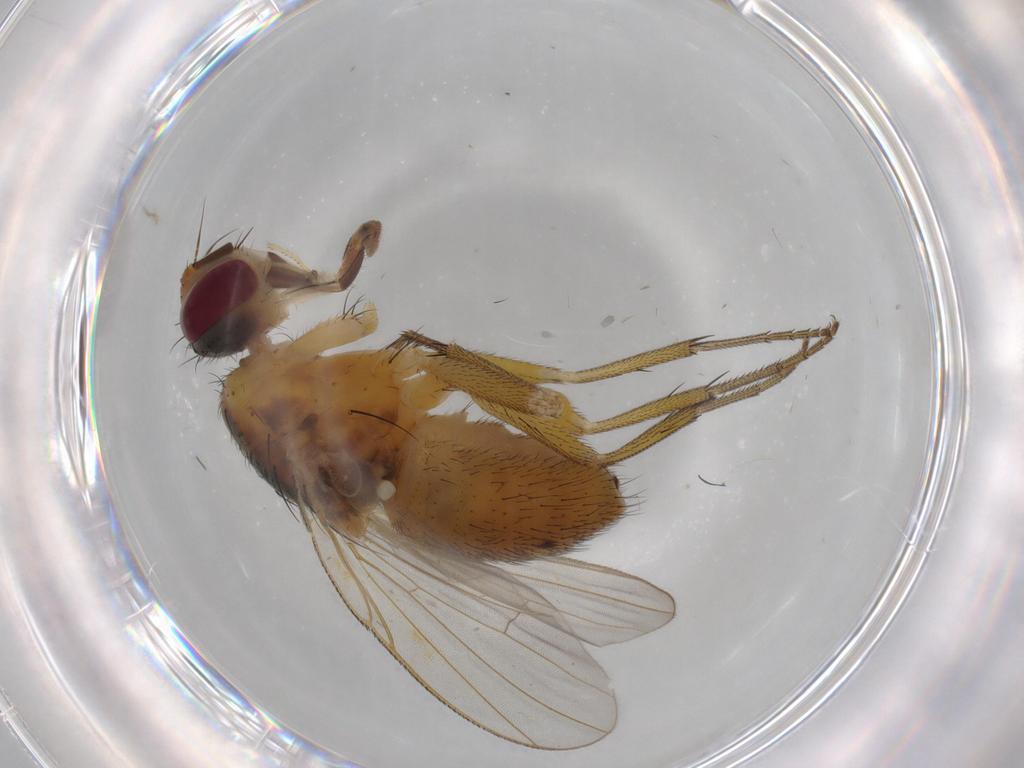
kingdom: Animalia
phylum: Arthropoda
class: Insecta
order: Diptera
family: Muscidae
